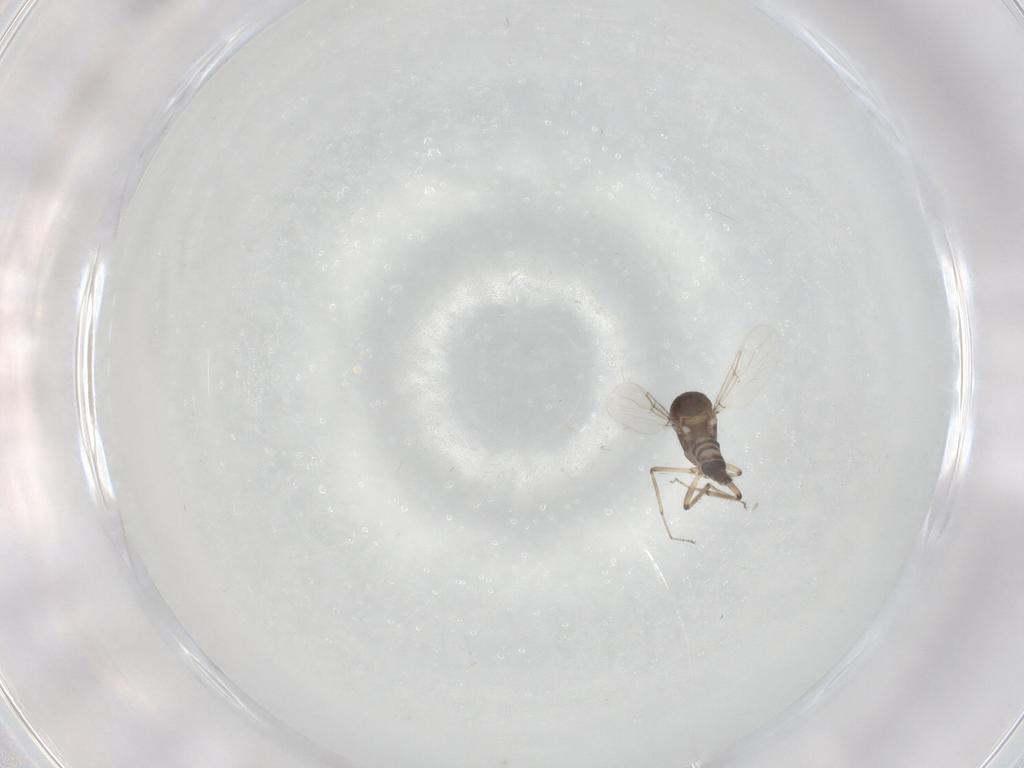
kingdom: Animalia
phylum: Arthropoda
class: Insecta
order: Diptera
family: Ceratopogonidae
